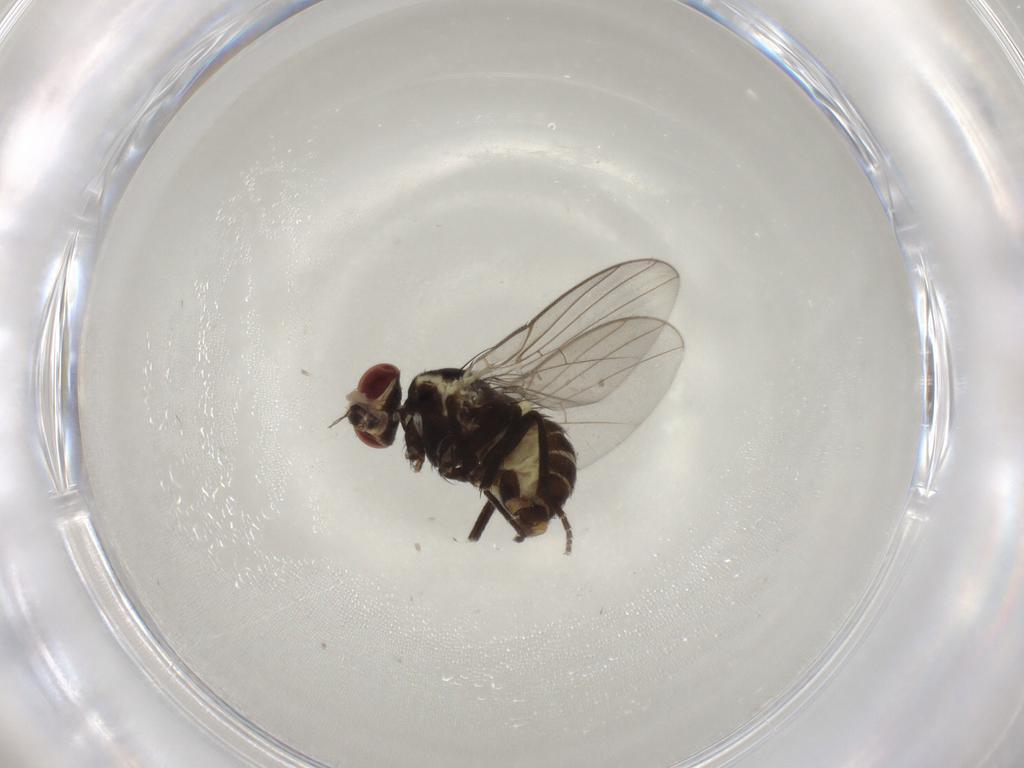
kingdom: Animalia
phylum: Arthropoda
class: Insecta
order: Diptera
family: Agromyzidae
